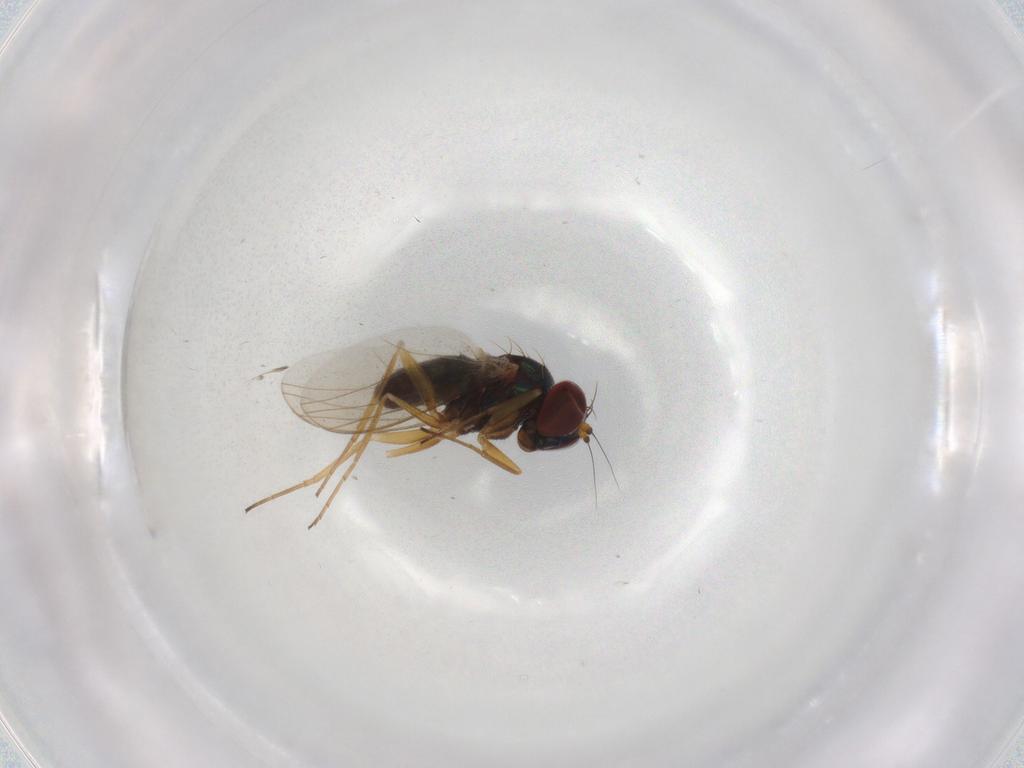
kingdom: Animalia
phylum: Arthropoda
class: Insecta
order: Diptera
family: Dolichopodidae
